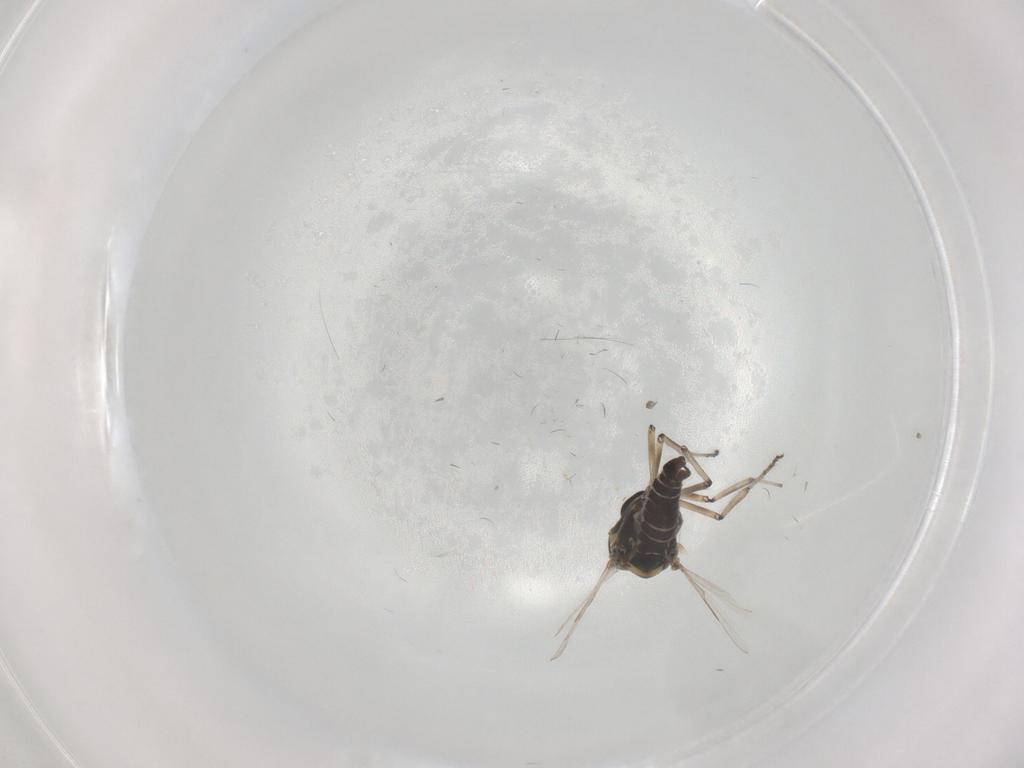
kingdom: Animalia
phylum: Arthropoda
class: Insecta
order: Diptera
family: Ceratopogonidae
